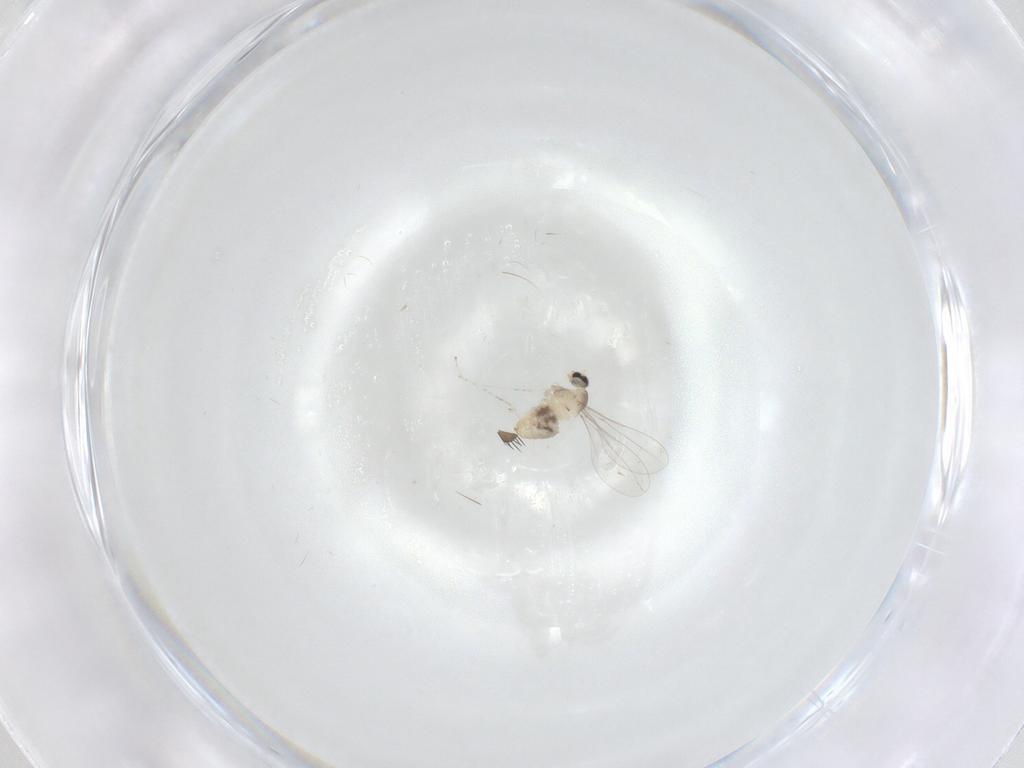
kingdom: Animalia
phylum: Arthropoda
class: Insecta
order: Diptera
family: Cecidomyiidae
